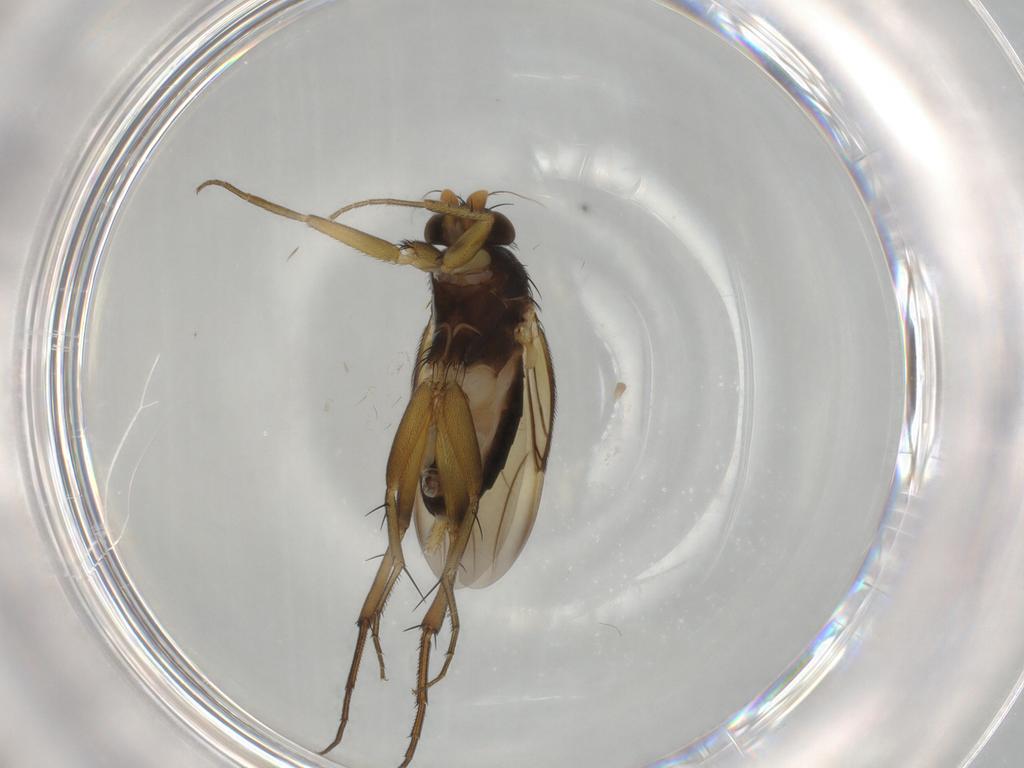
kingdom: Animalia
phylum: Arthropoda
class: Insecta
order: Diptera
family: Phoridae
